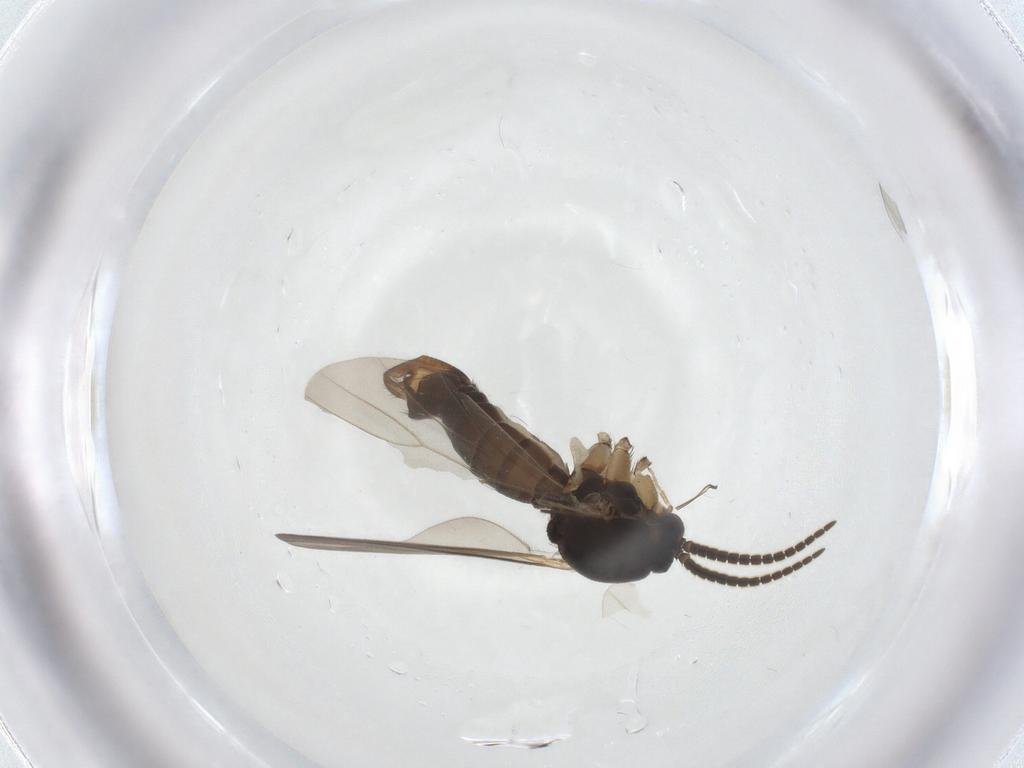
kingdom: Animalia
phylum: Arthropoda
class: Insecta
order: Diptera
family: Mycetophilidae
